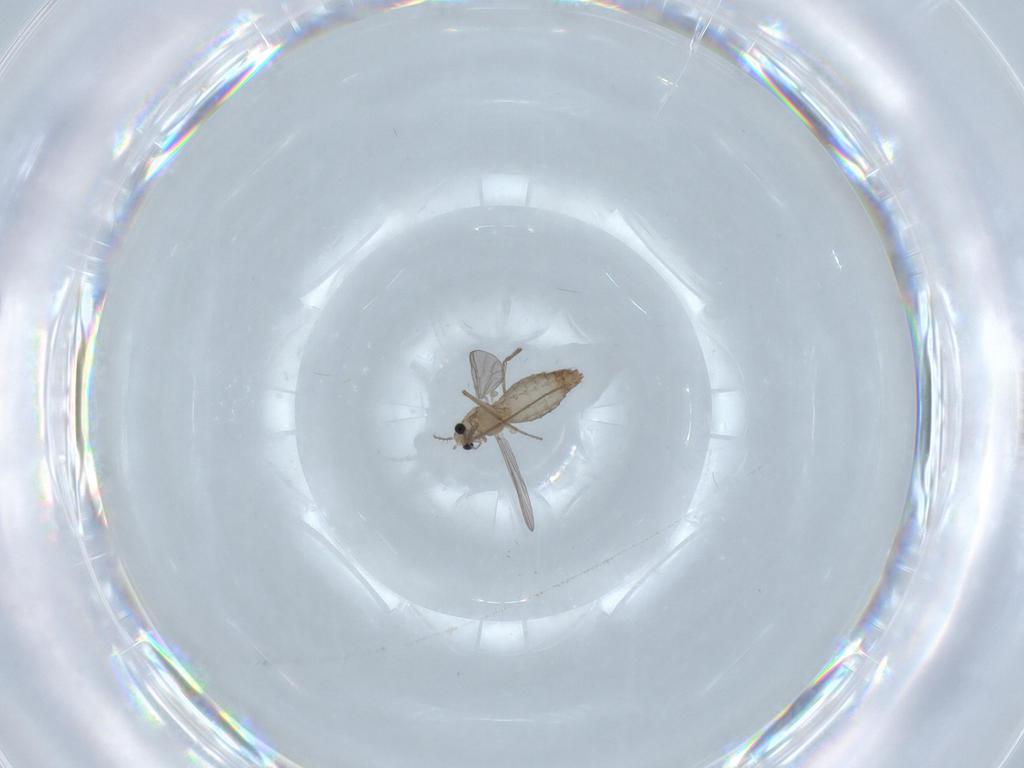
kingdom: Animalia
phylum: Arthropoda
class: Insecta
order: Diptera
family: Chironomidae
